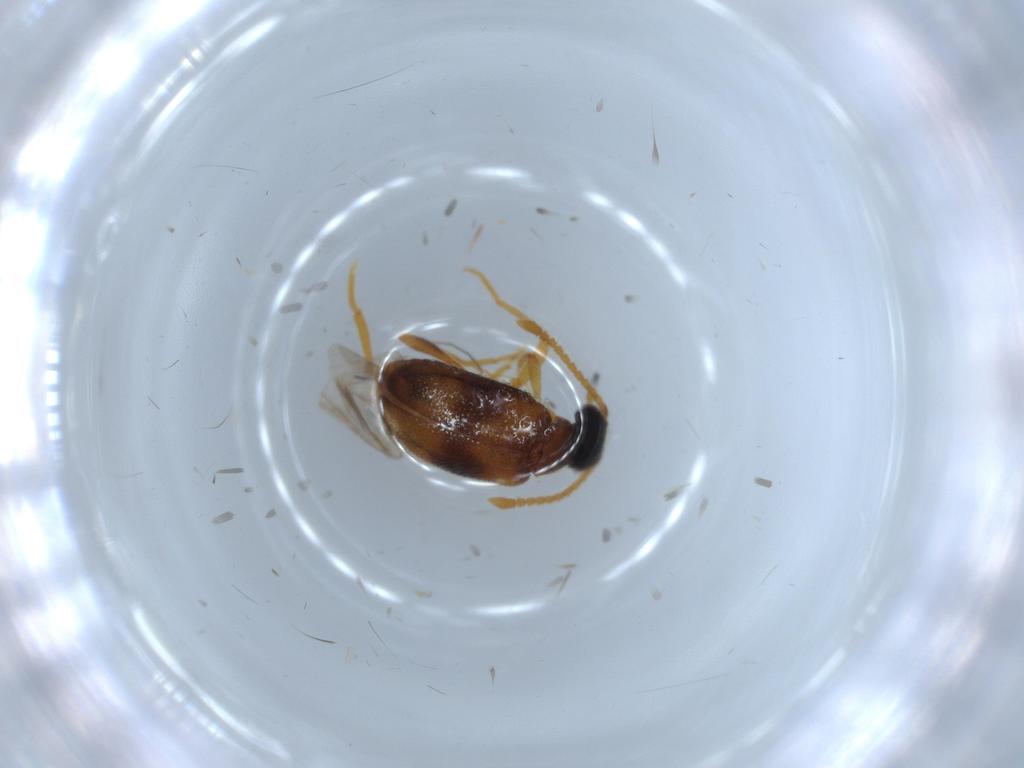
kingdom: Animalia
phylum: Arthropoda
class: Insecta
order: Coleoptera
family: Aderidae
